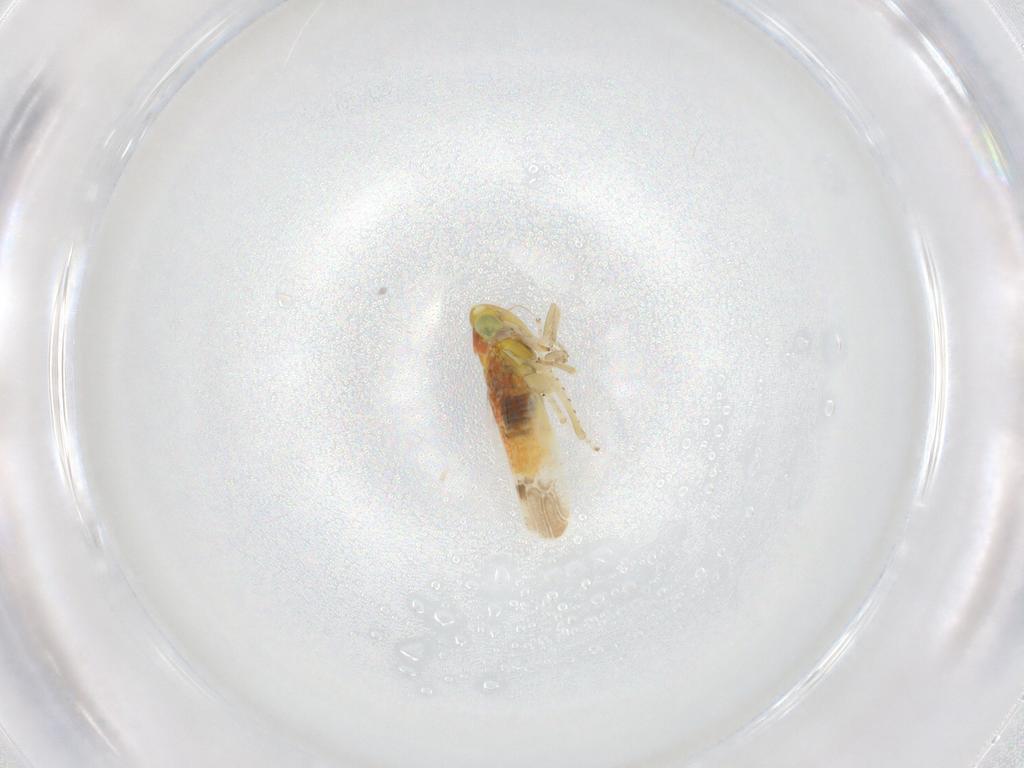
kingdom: Animalia
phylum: Arthropoda
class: Insecta
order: Hemiptera
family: Cicadellidae
